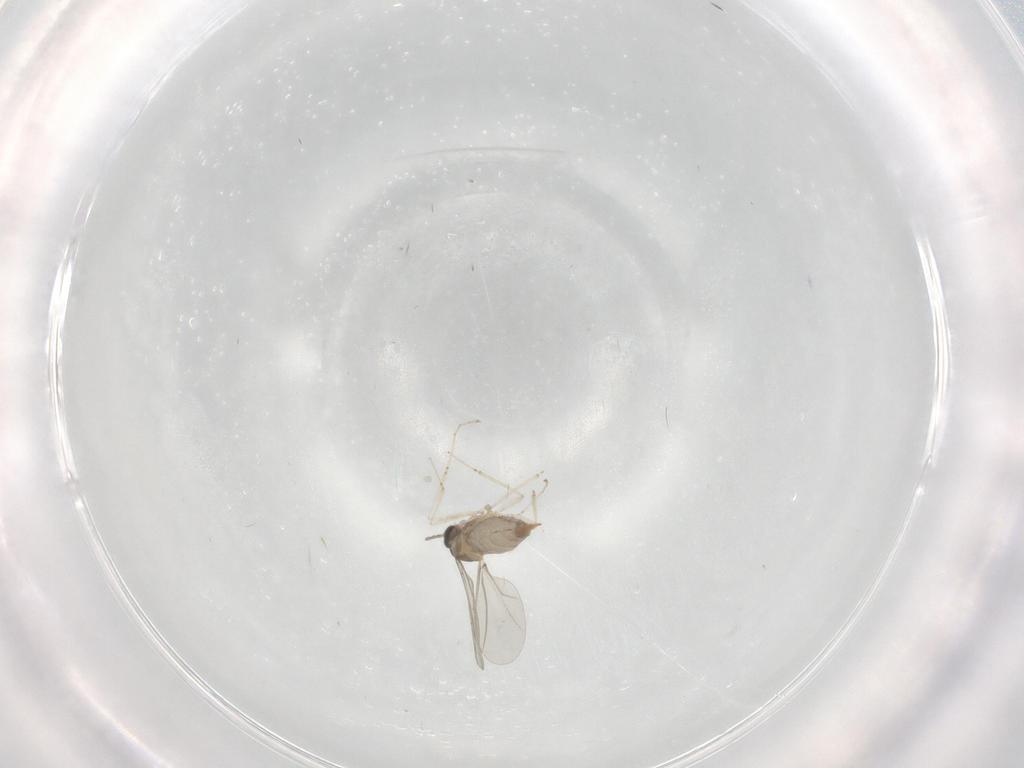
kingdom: Animalia
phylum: Arthropoda
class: Insecta
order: Diptera
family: Cecidomyiidae
